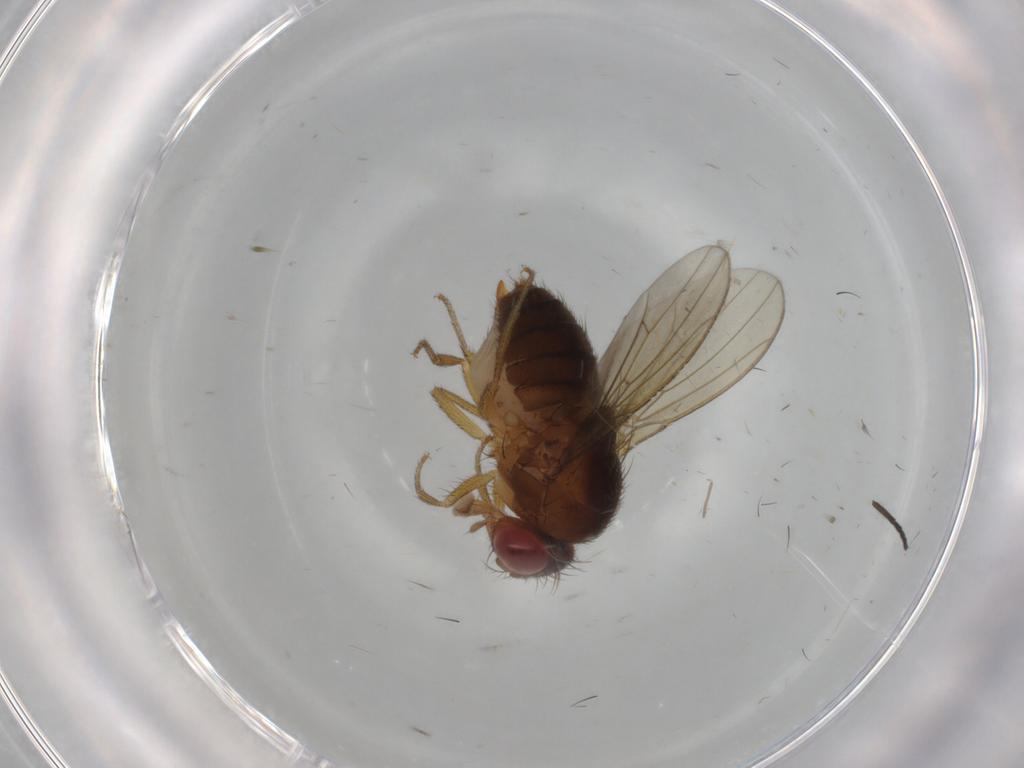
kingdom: Animalia
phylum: Arthropoda
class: Insecta
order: Diptera
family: Drosophilidae
